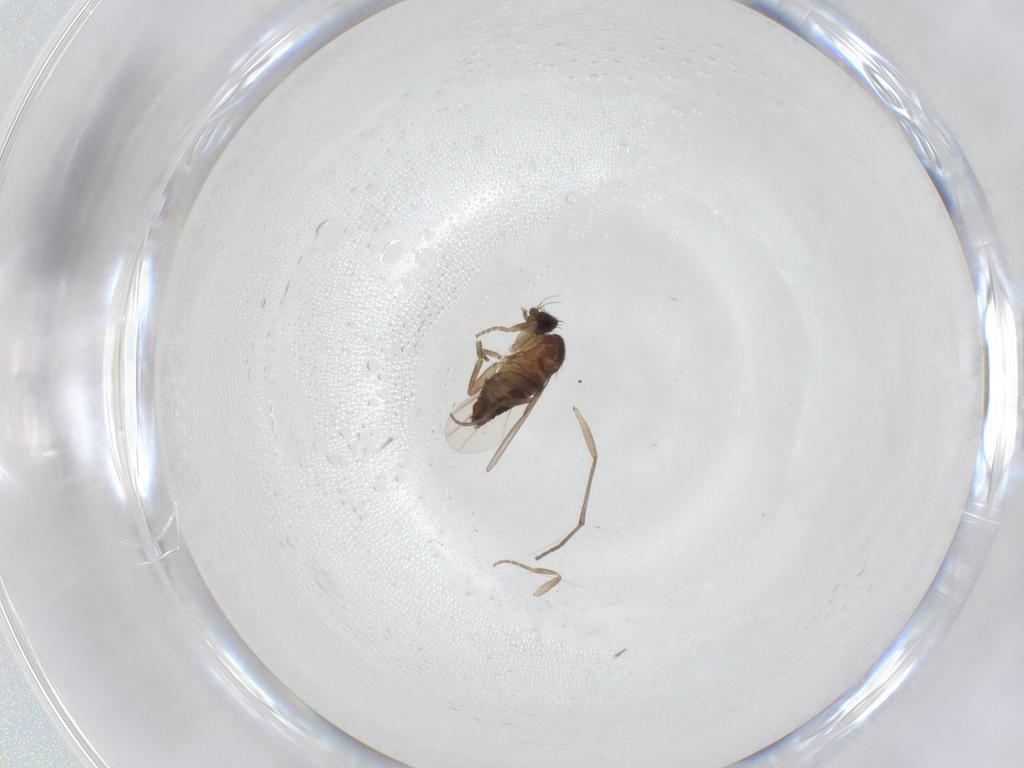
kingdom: Animalia
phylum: Arthropoda
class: Insecta
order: Diptera
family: Phoridae
